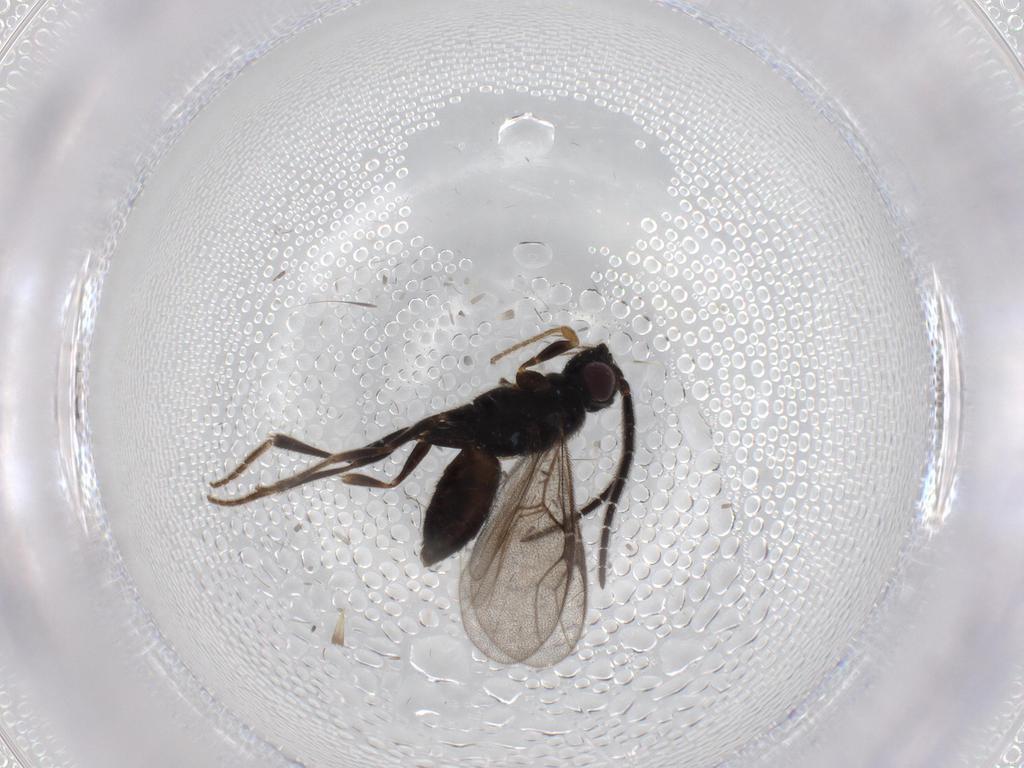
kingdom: Animalia
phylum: Arthropoda
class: Insecta
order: Hymenoptera
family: Dryinidae
